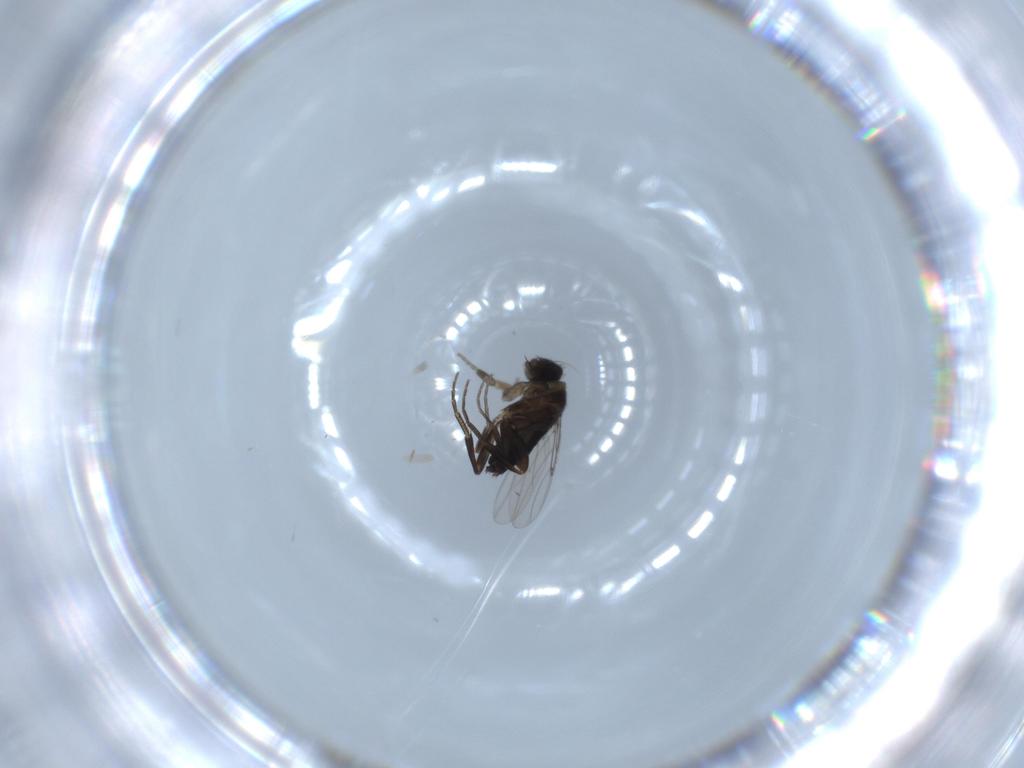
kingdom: Animalia
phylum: Arthropoda
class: Insecta
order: Diptera
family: Phoridae
